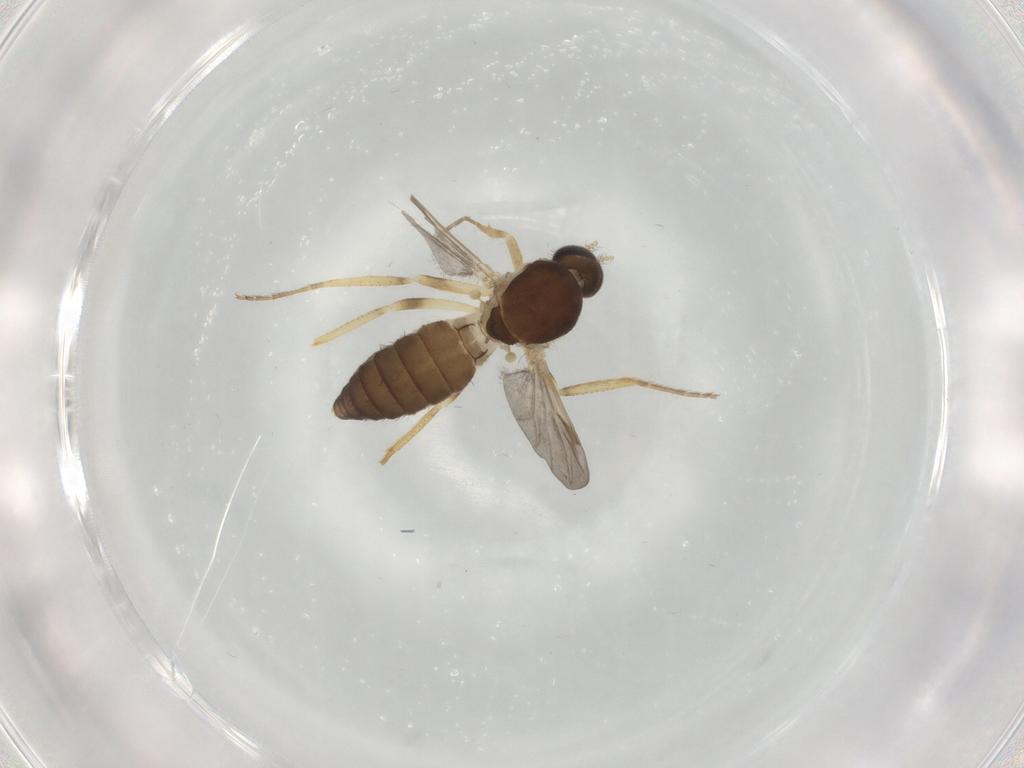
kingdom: Animalia
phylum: Arthropoda
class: Insecta
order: Diptera
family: Ceratopogonidae
